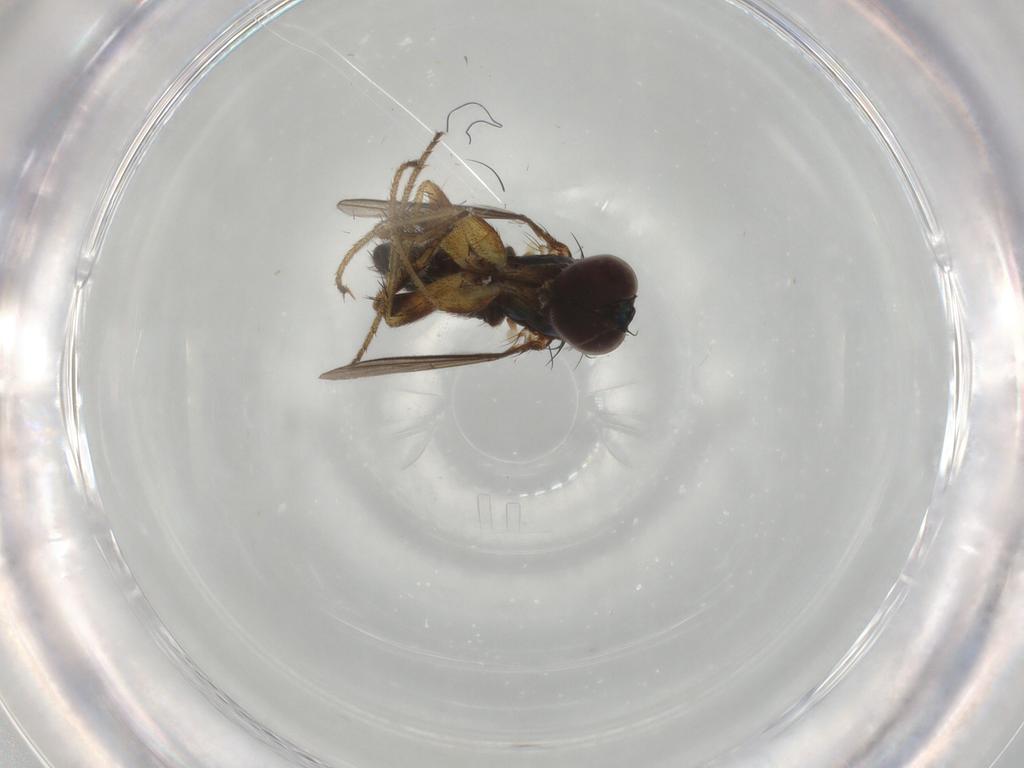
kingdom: Animalia
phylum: Arthropoda
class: Insecta
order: Diptera
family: Dolichopodidae
